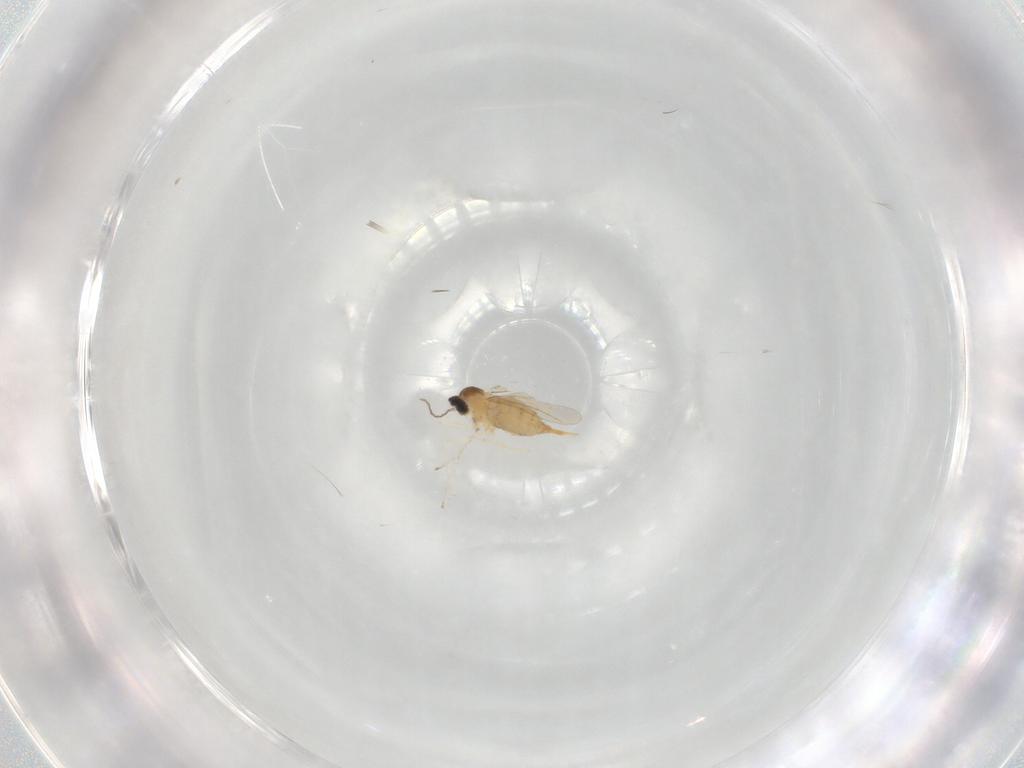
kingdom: Animalia
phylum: Arthropoda
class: Insecta
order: Diptera
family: Cecidomyiidae
